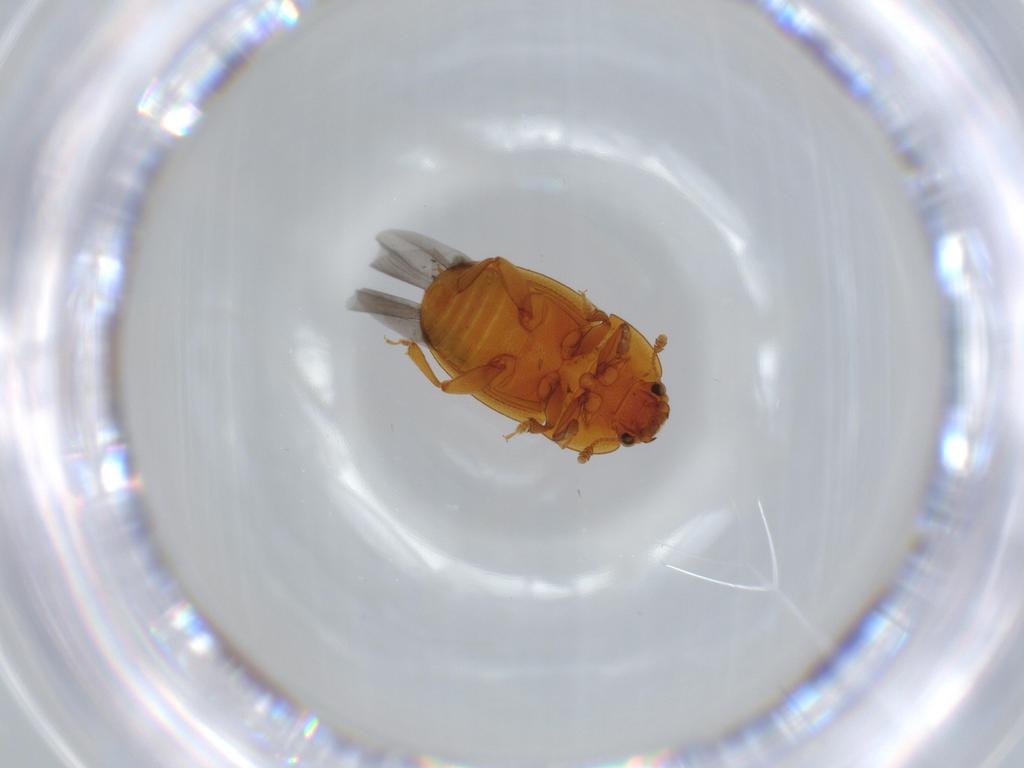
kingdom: Animalia
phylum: Arthropoda
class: Insecta
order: Coleoptera
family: Nitidulidae
